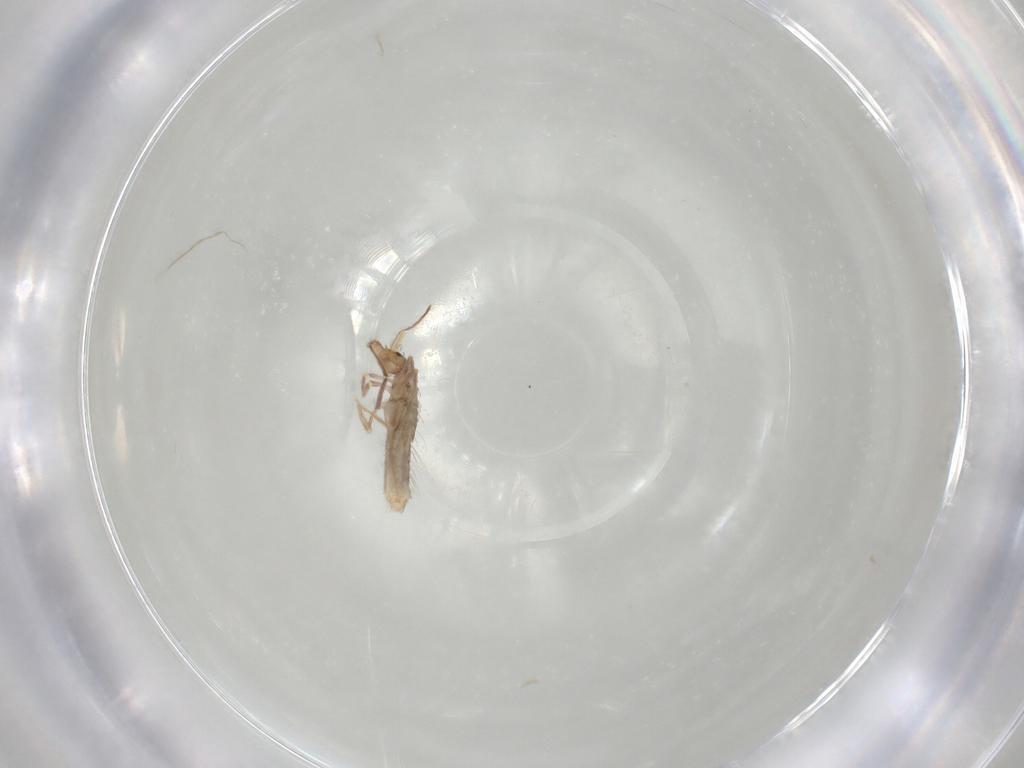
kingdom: Animalia
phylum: Arthropoda
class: Collembola
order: Entomobryomorpha
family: Entomobryidae
